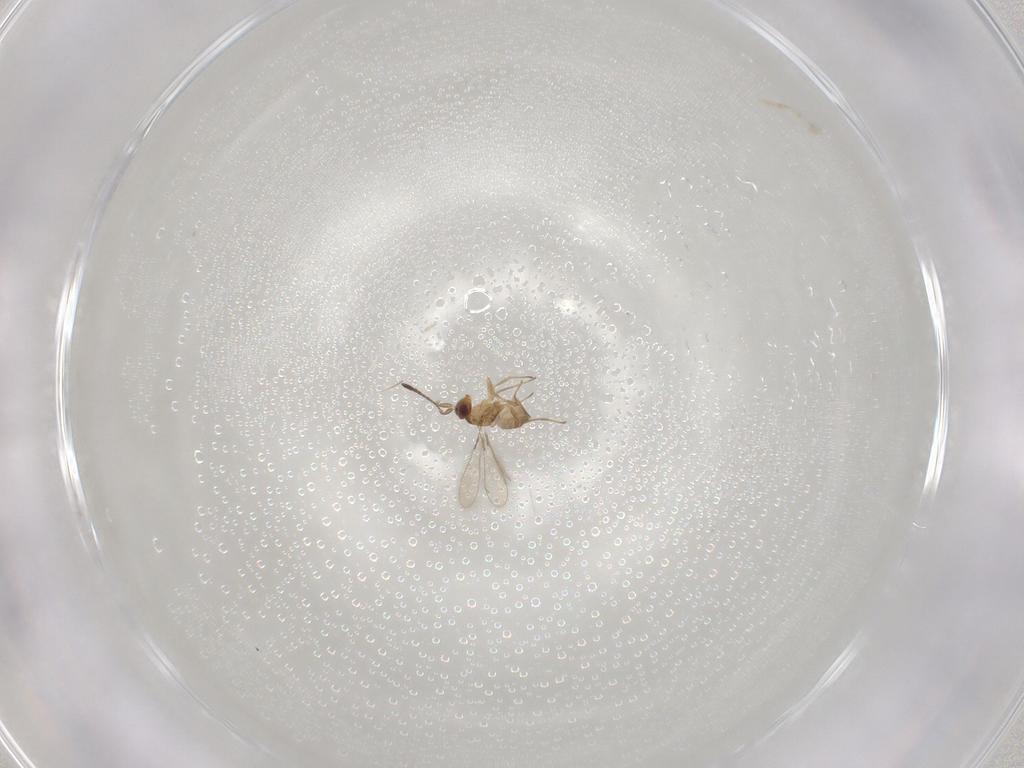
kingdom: Animalia
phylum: Arthropoda
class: Insecta
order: Hymenoptera
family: Mymaridae
